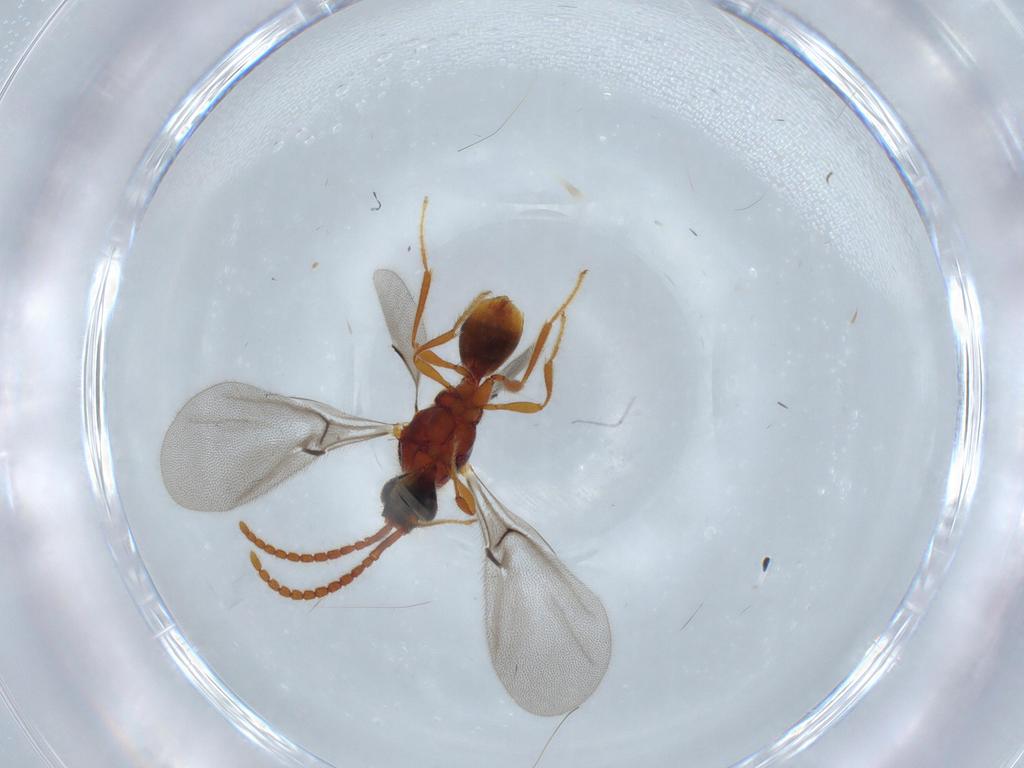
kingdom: Animalia
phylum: Arthropoda
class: Insecta
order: Hymenoptera
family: Diapriidae
